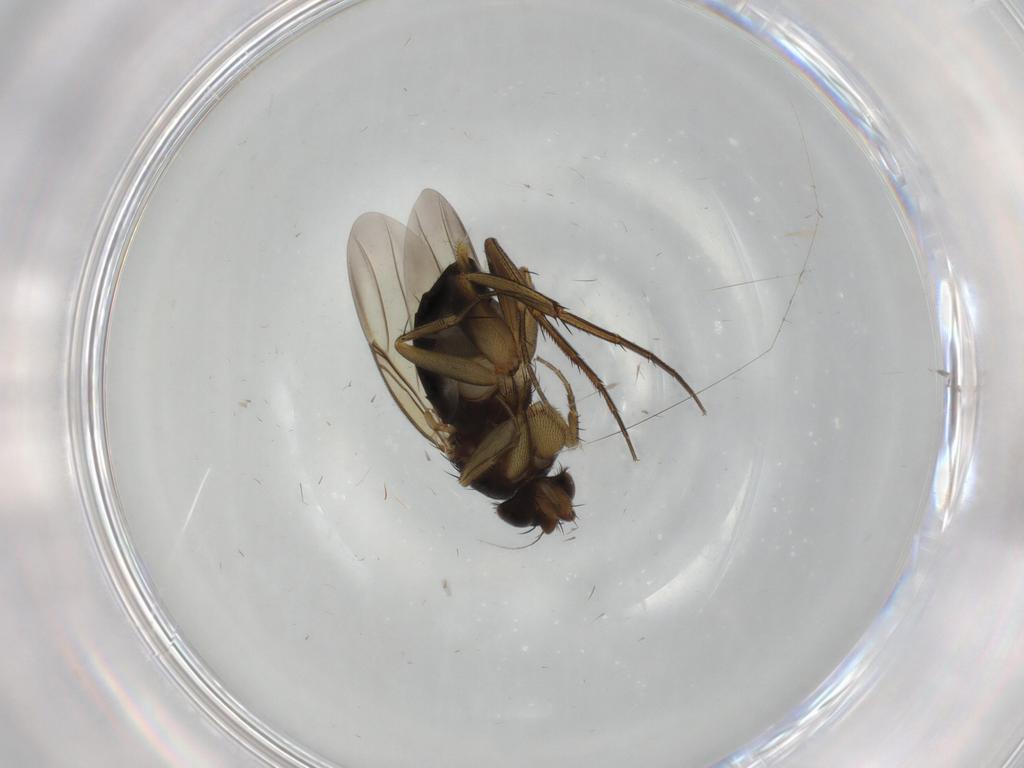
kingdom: Animalia
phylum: Arthropoda
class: Insecta
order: Diptera
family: Phoridae
